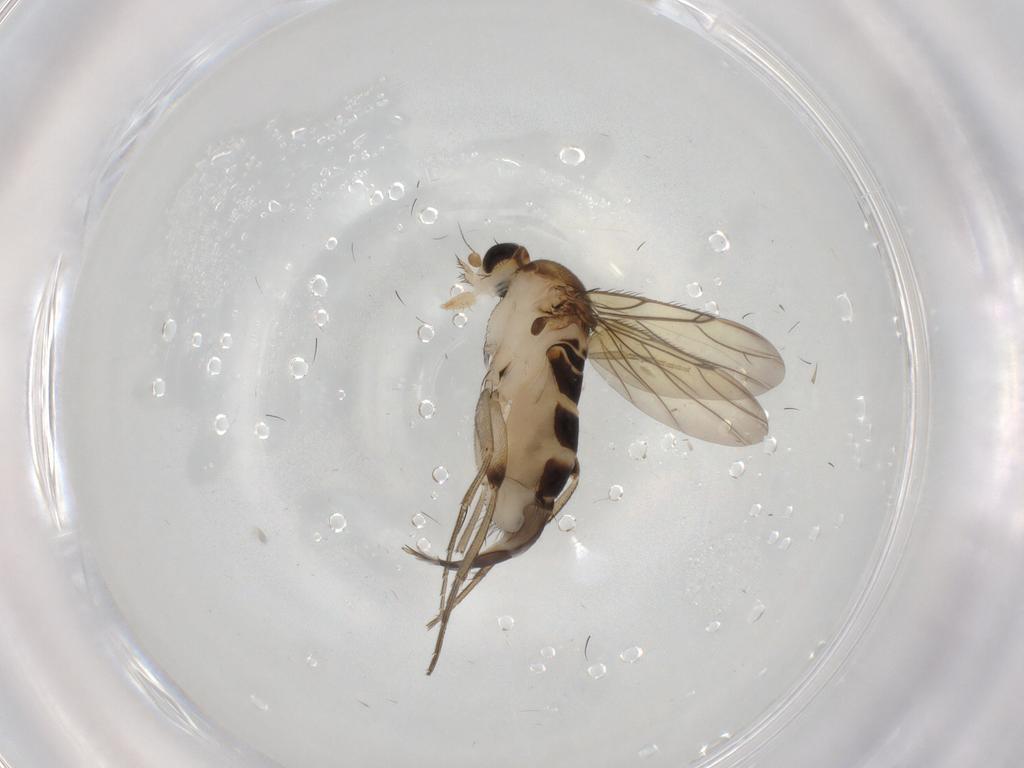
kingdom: Animalia
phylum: Arthropoda
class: Insecta
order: Diptera
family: Phoridae
